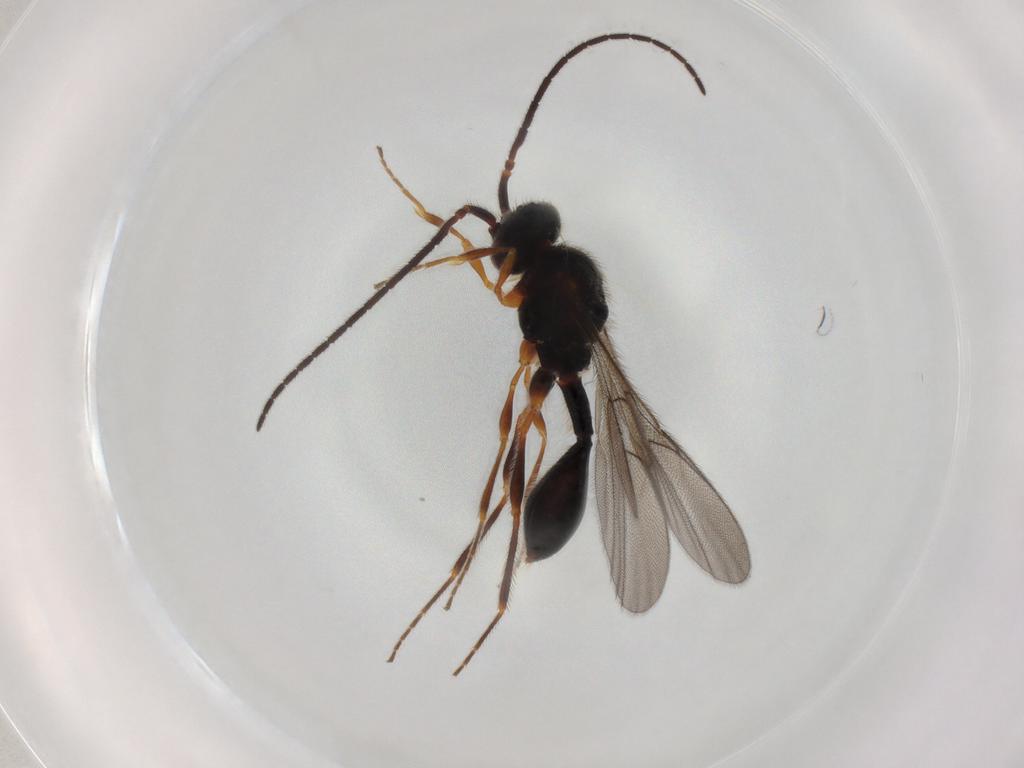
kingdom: Animalia
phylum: Arthropoda
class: Insecta
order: Hymenoptera
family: Diapriidae
